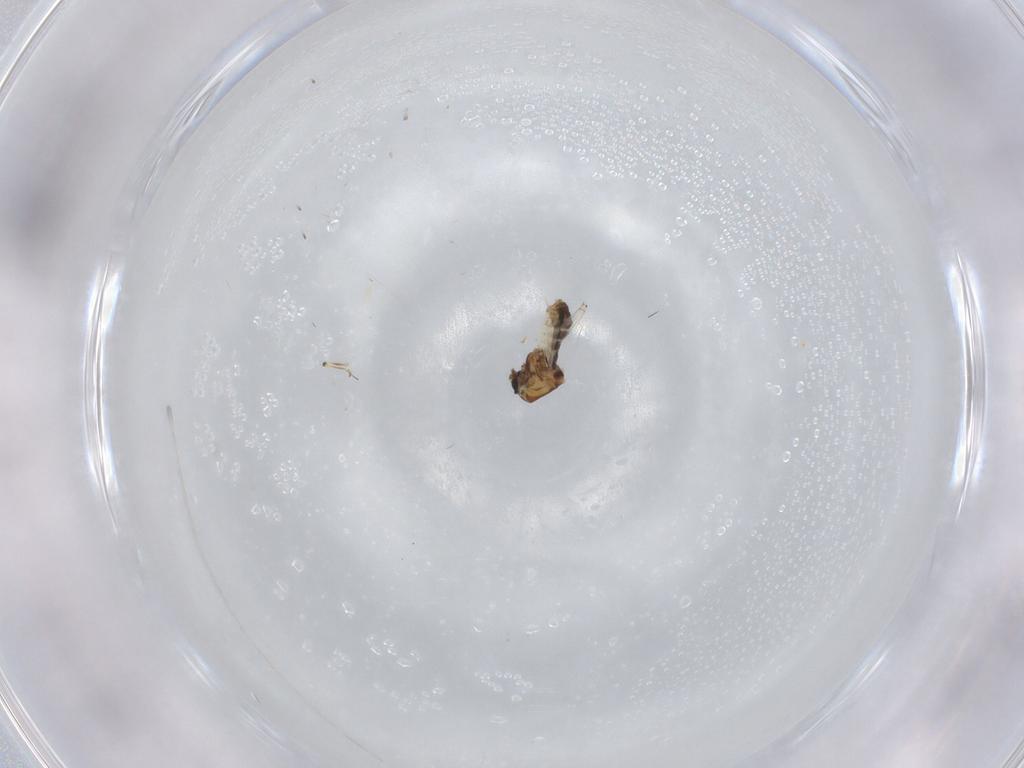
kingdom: Animalia
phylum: Arthropoda
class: Insecta
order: Diptera
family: Ceratopogonidae
